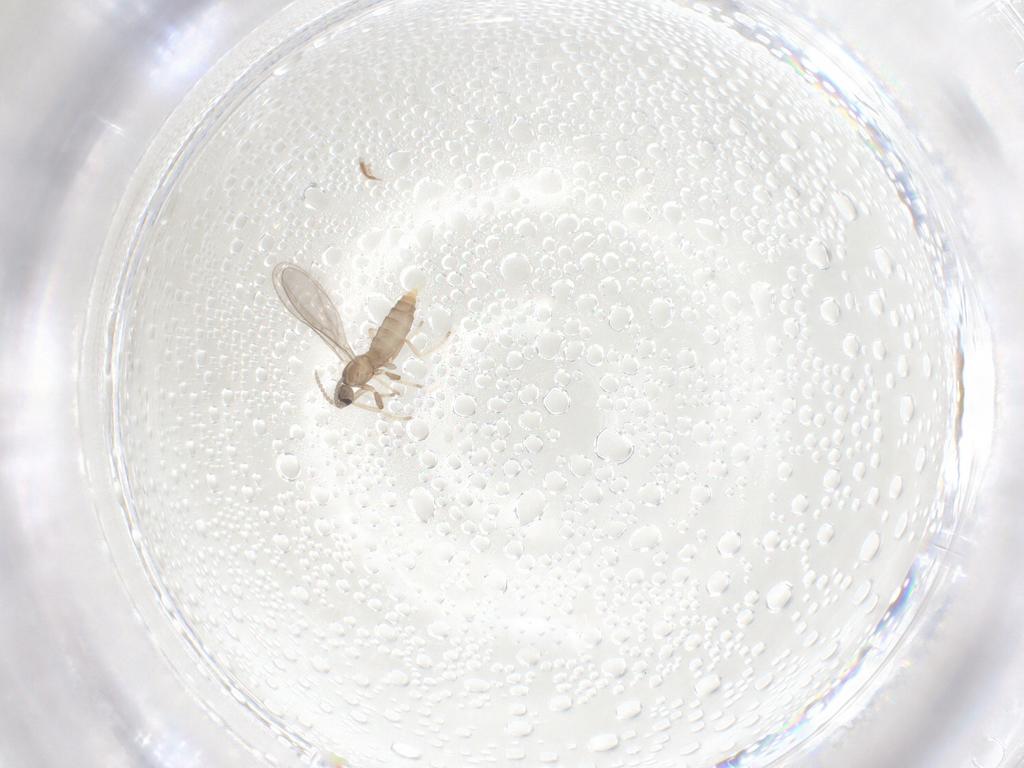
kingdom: Animalia
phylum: Arthropoda
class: Insecta
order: Diptera
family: Cecidomyiidae
